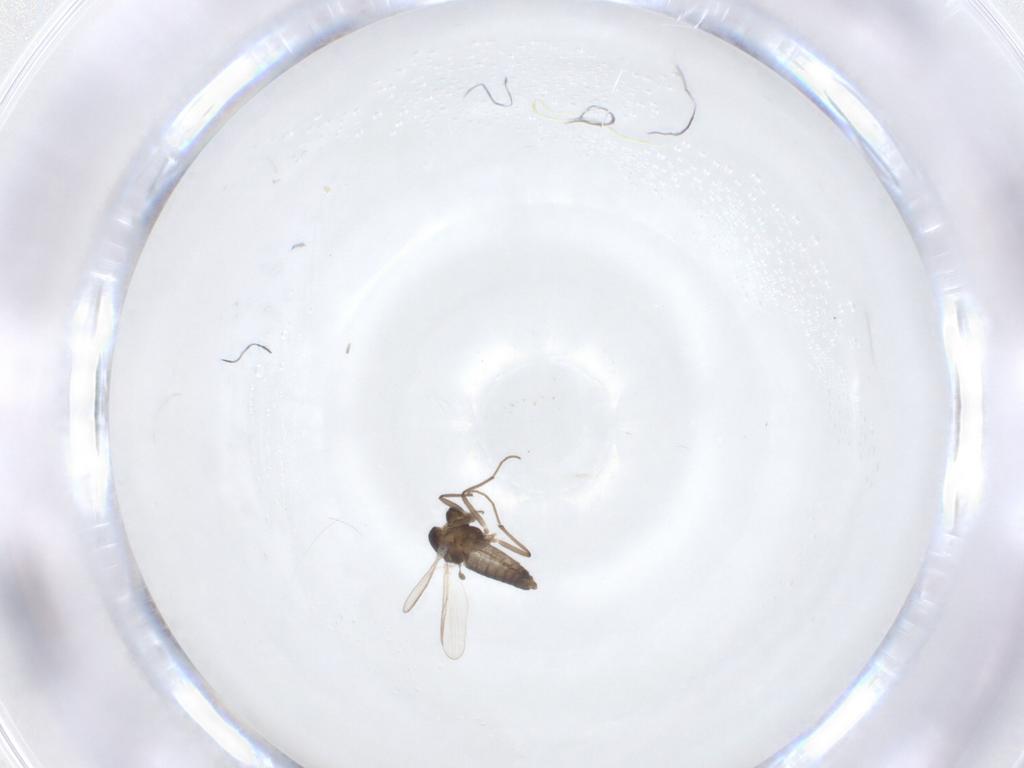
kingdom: Animalia
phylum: Arthropoda
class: Insecta
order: Diptera
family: Chironomidae
